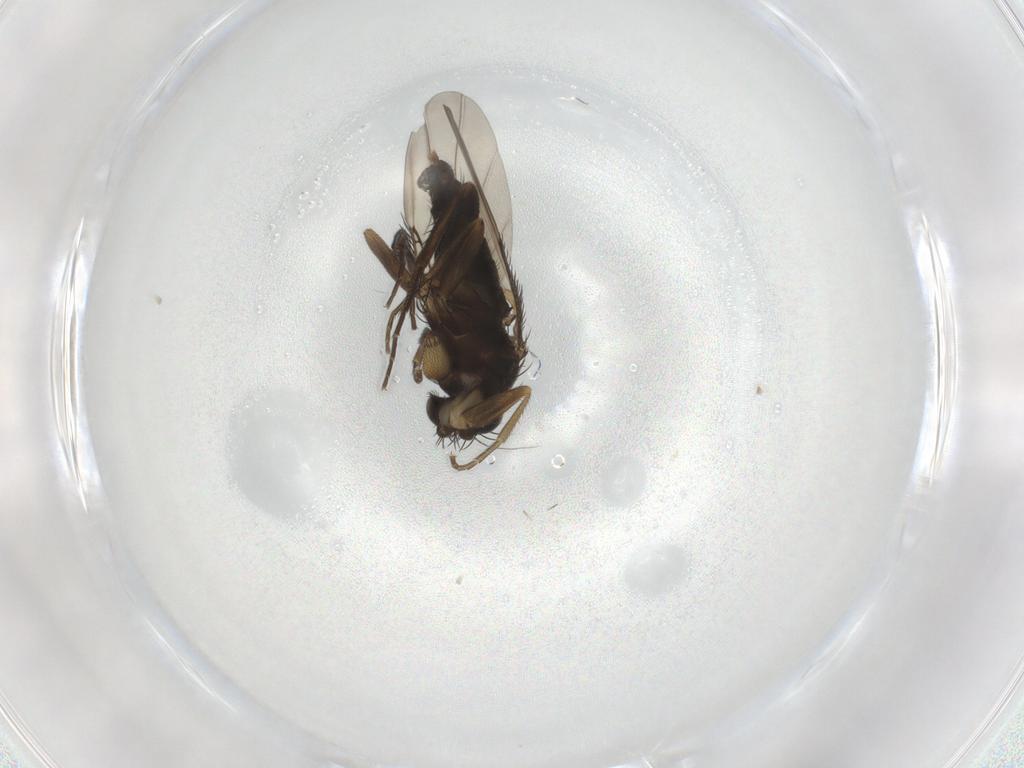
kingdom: Animalia
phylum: Arthropoda
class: Insecta
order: Diptera
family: Phoridae
